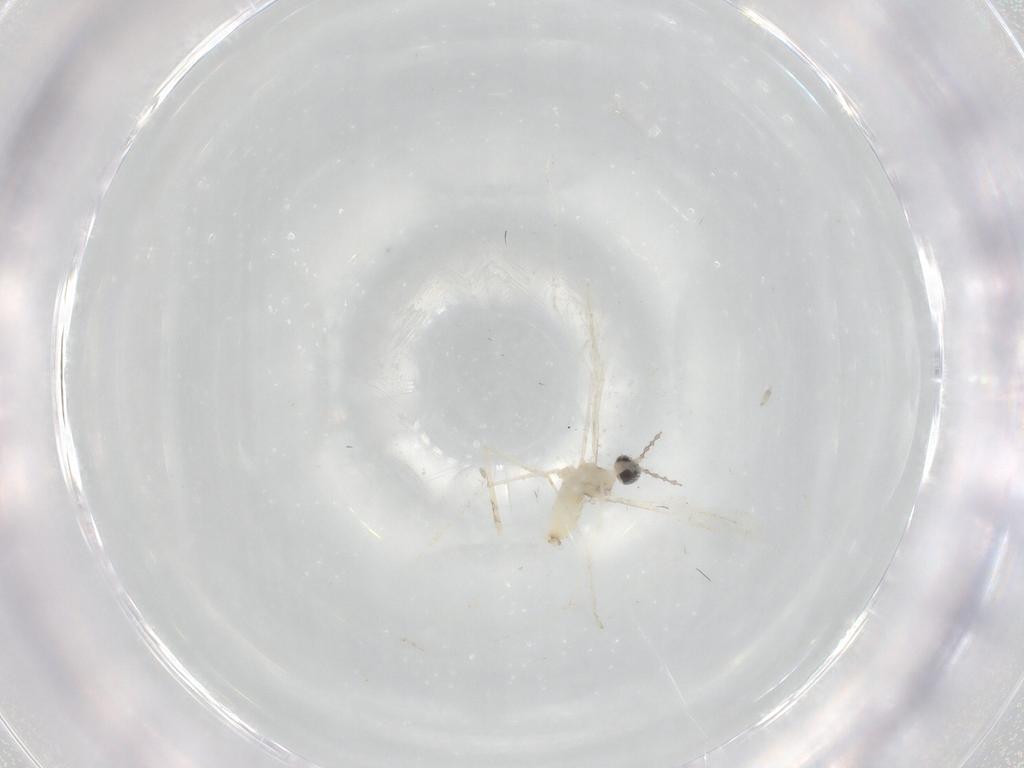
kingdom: Animalia
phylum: Arthropoda
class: Insecta
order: Diptera
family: Cecidomyiidae
